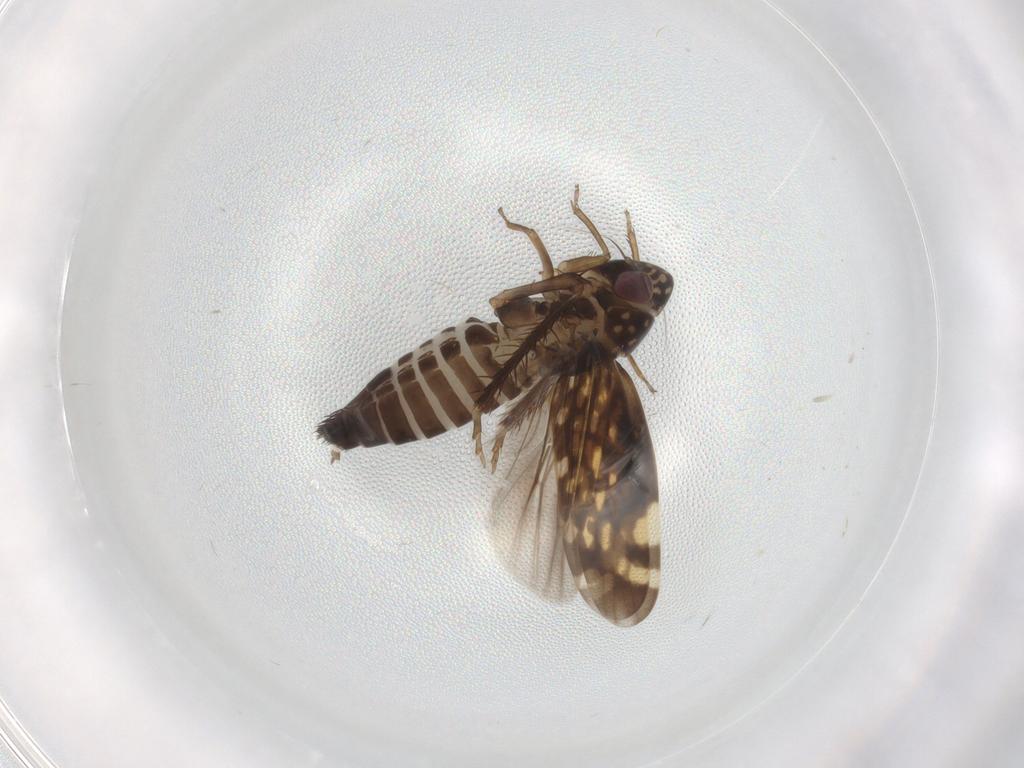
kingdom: Animalia
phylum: Arthropoda
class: Insecta
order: Hemiptera
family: Cicadellidae
